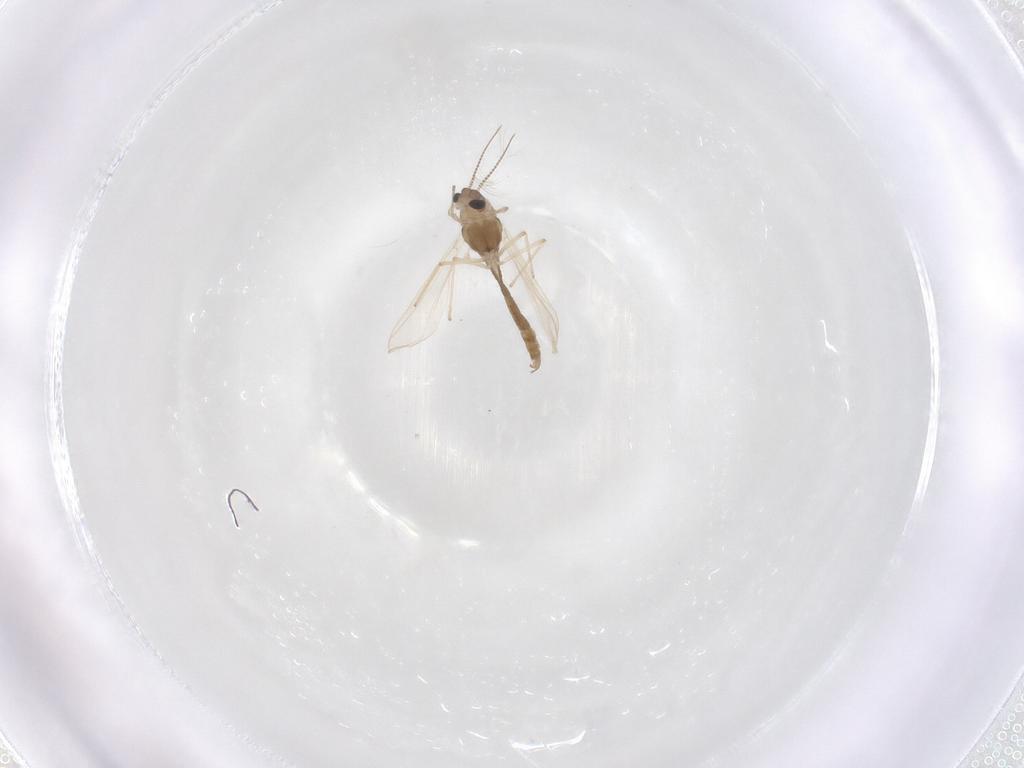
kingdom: Animalia
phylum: Arthropoda
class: Insecta
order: Diptera
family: Chironomidae
